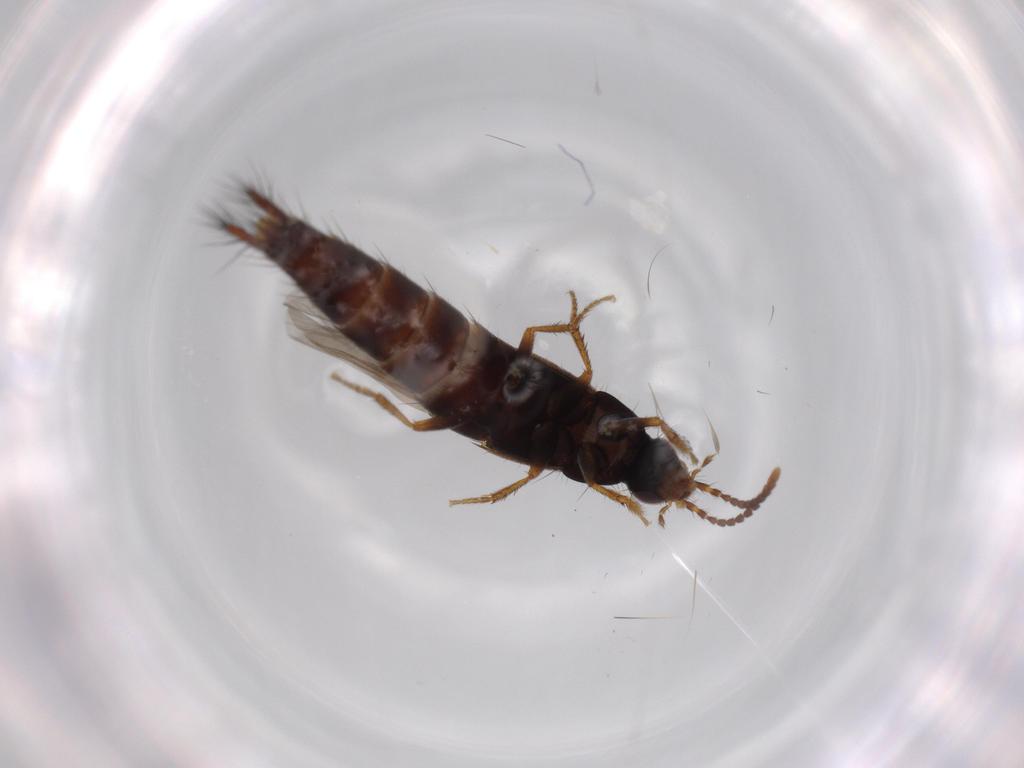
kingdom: Animalia
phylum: Arthropoda
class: Insecta
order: Coleoptera
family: Staphylinidae
